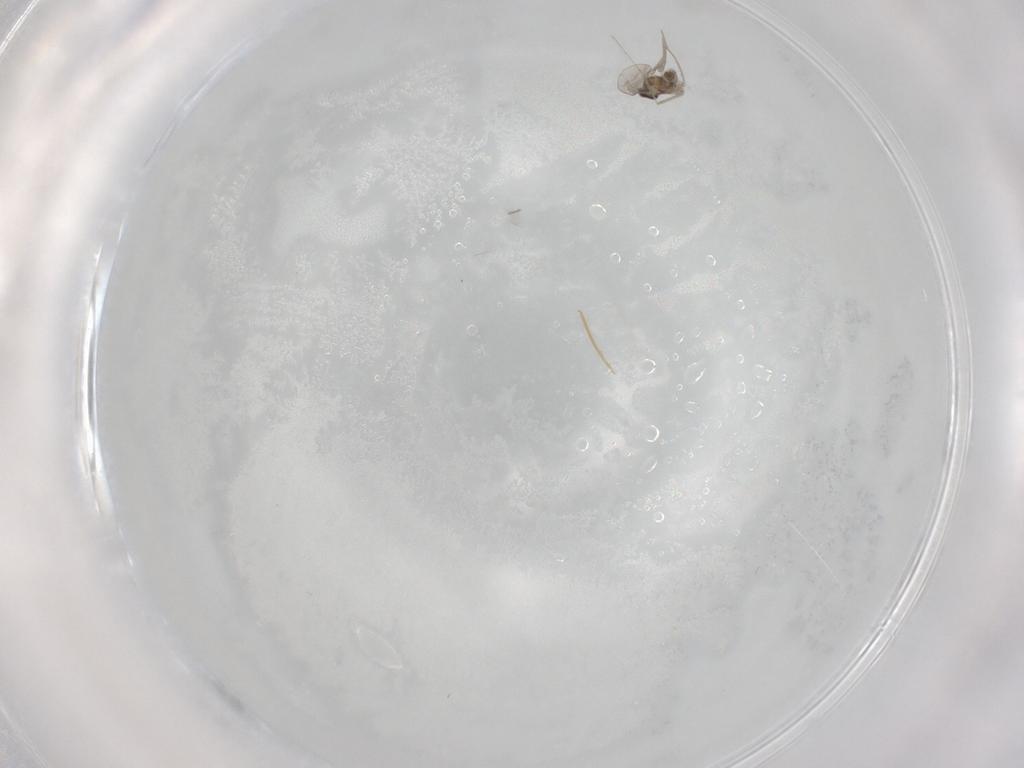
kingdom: Animalia
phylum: Arthropoda
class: Insecta
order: Diptera
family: Cecidomyiidae
